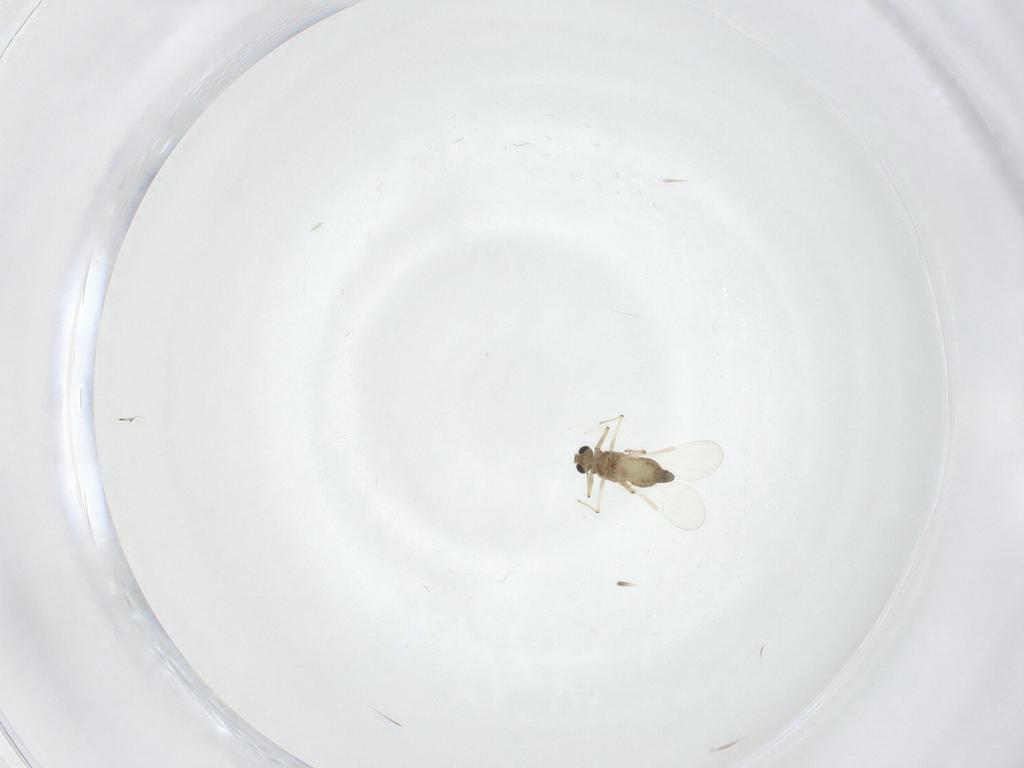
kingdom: Animalia
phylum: Arthropoda
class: Insecta
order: Diptera
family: Chironomidae
